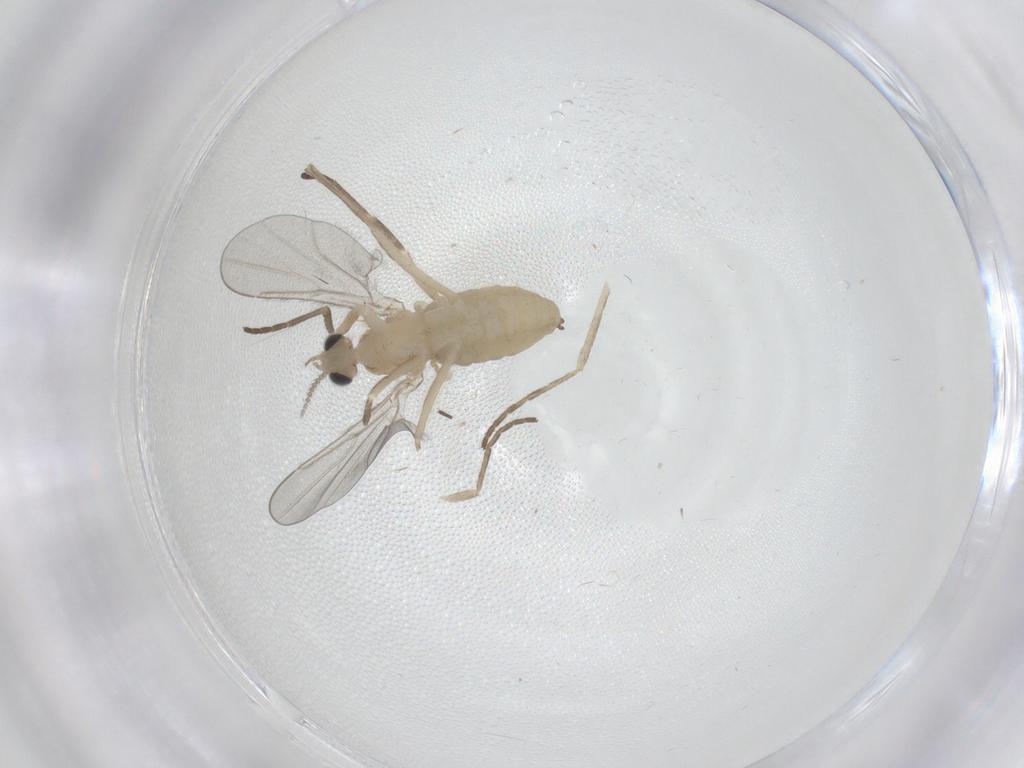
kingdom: Animalia
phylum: Arthropoda
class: Insecta
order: Diptera
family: Cecidomyiidae
